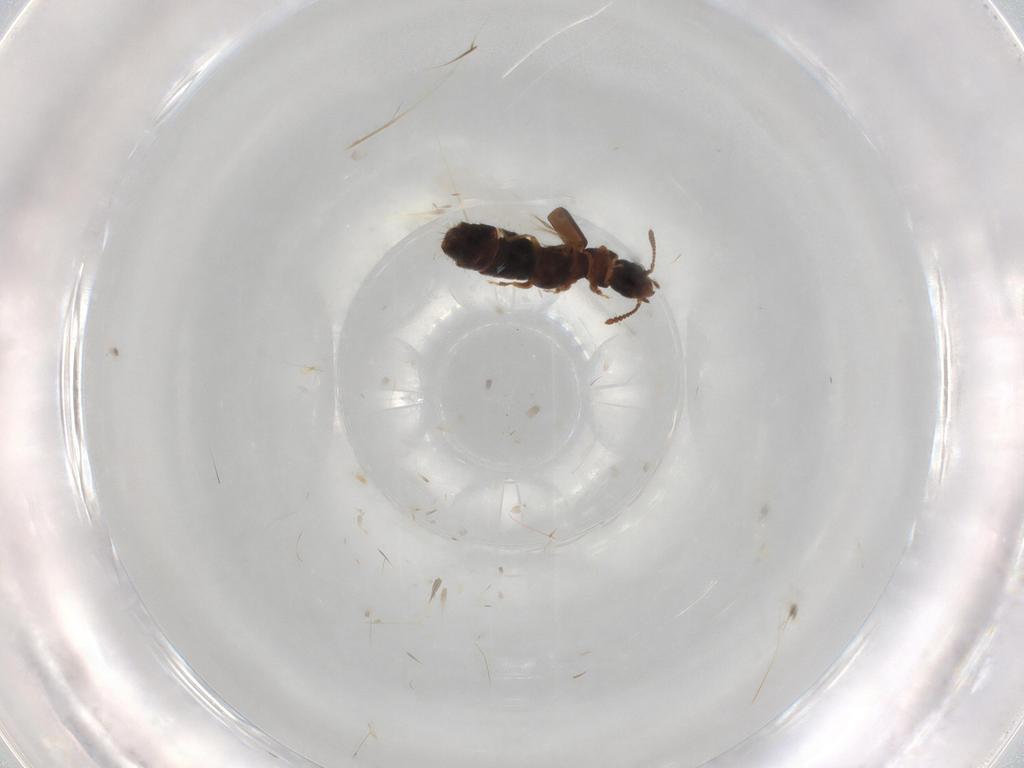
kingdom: Animalia
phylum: Arthropoda
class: Insecta
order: Coleoptera
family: Staphylinidae
